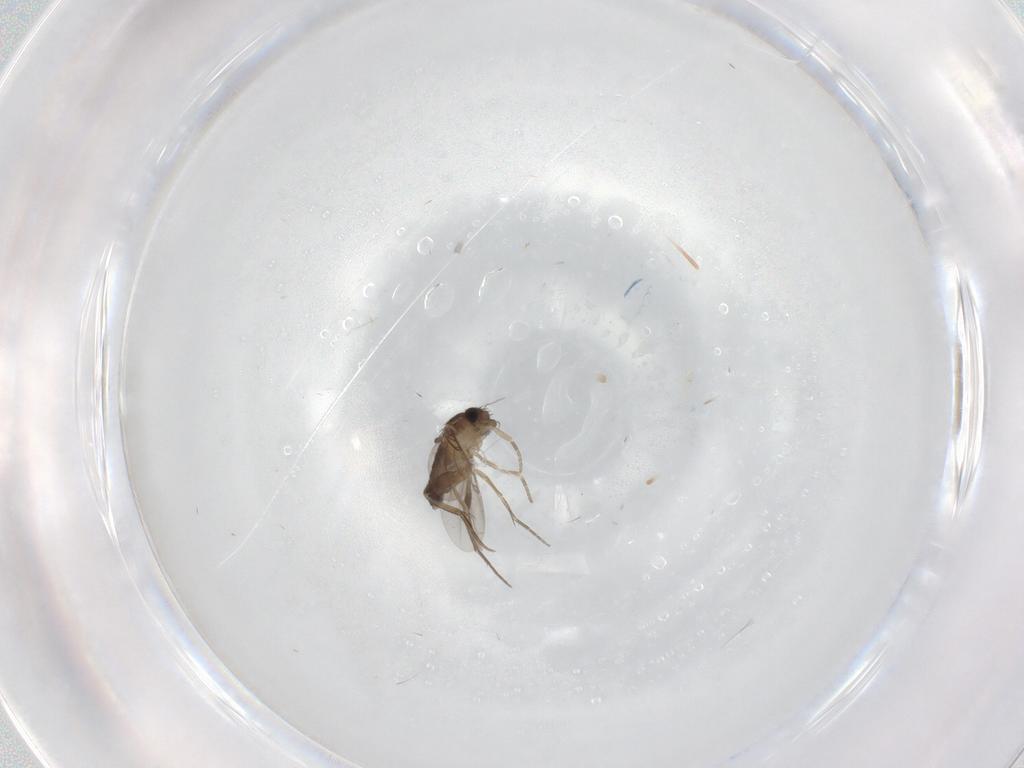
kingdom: Animalia
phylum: Arthropoda
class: Insecta
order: Diptera
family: Phoridae
